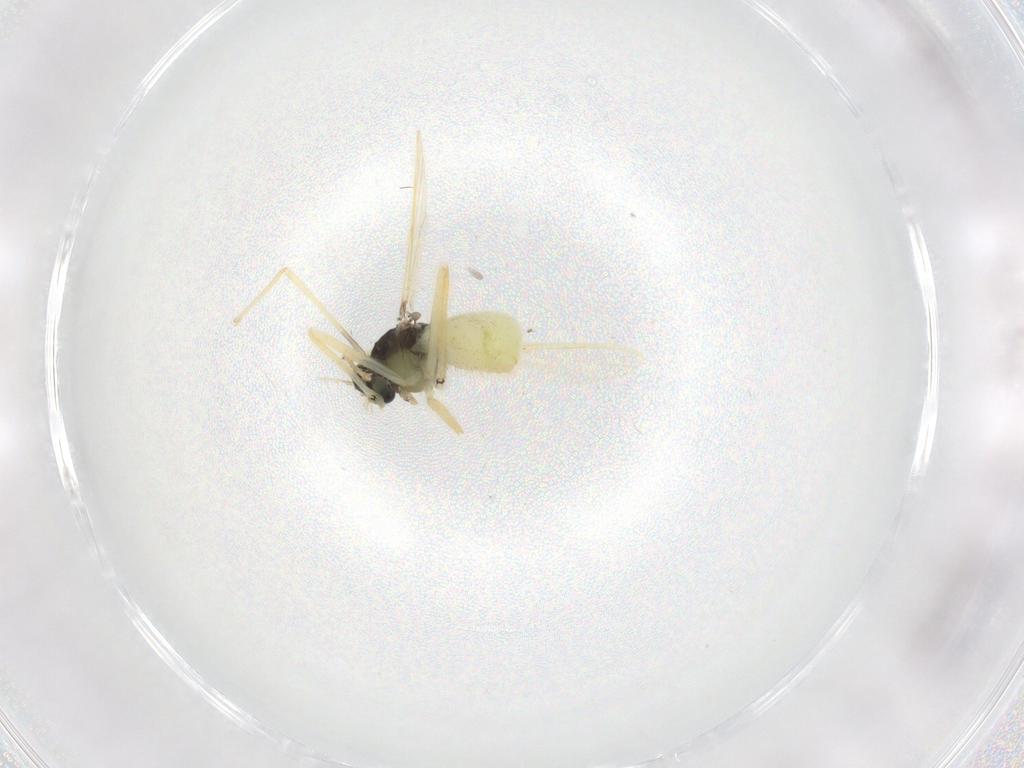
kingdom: Animalia
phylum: Arthropoda
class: Insecta
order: Diptera
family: Chironomidae
